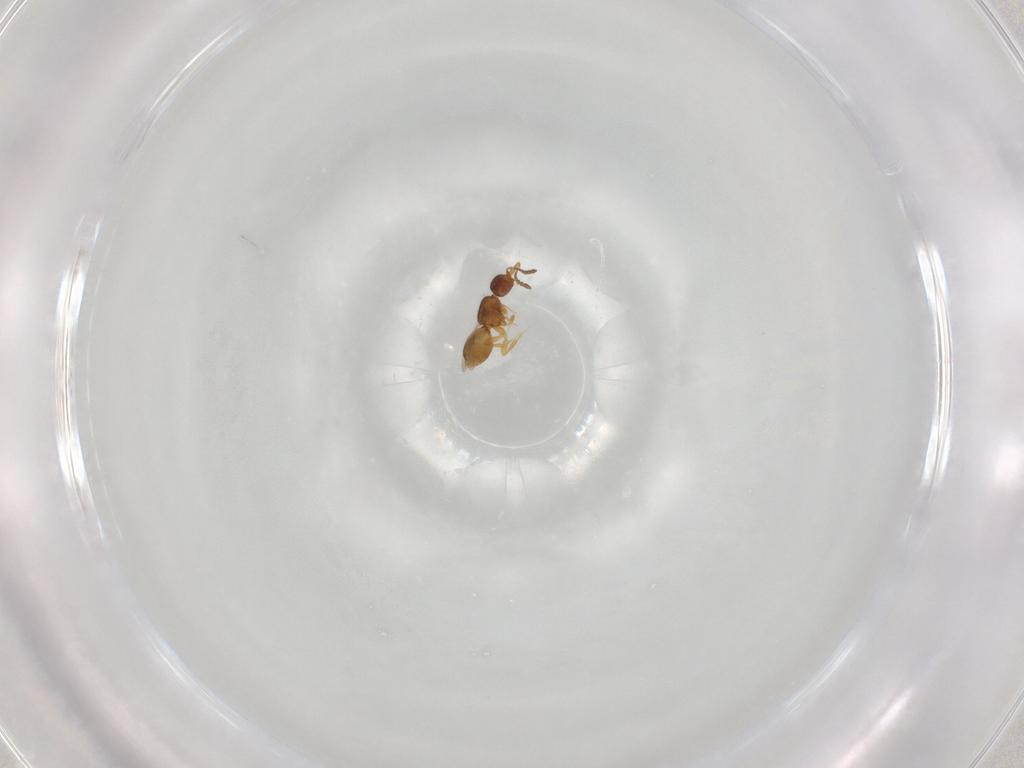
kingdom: Animalia
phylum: Arthropoda
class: Insecta
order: Hymenoptera
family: Ceraphronidae
